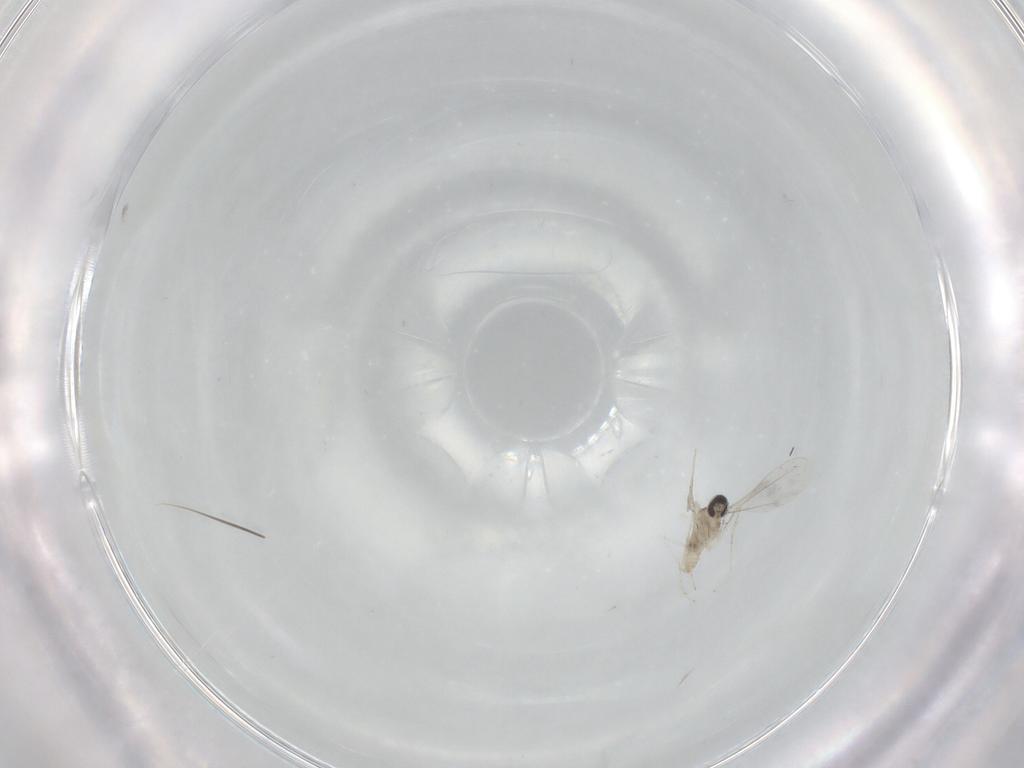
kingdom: Animalia
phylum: Arthropoda
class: Insecta
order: Diptera
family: Cecidomyiidae
